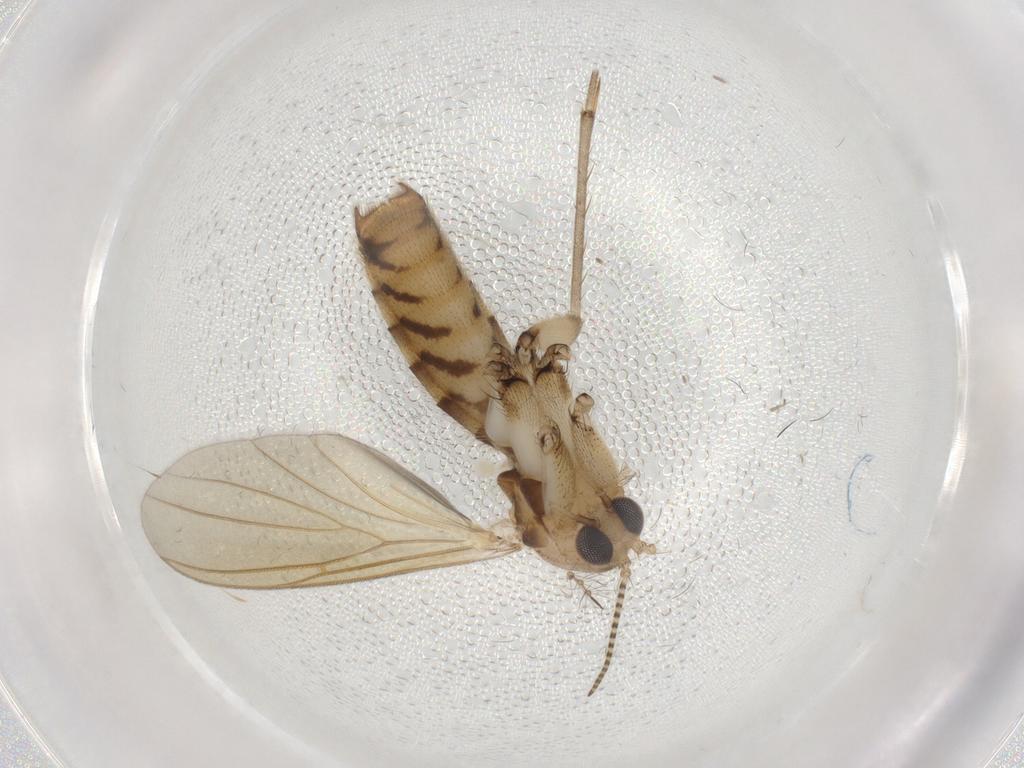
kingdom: Animalia
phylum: Arthropoda
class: Insecta
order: Diptera
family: Mycetophilidae
